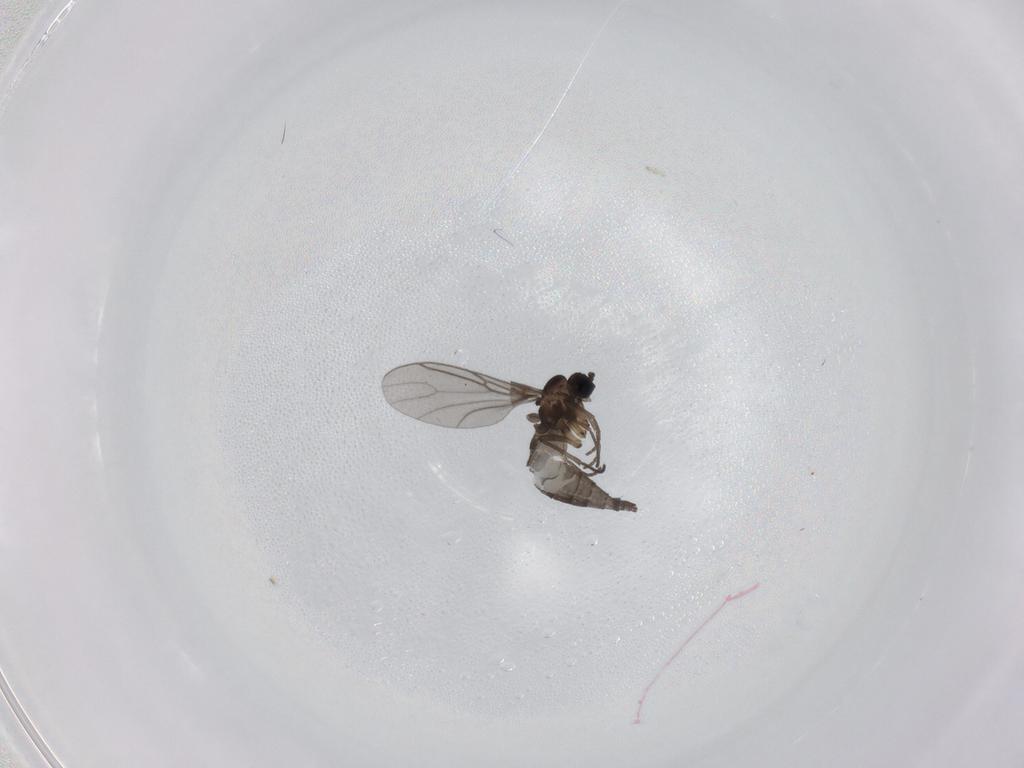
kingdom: Animalia
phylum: Arthropoda
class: Insecta
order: Diptera
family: Sciaridae
